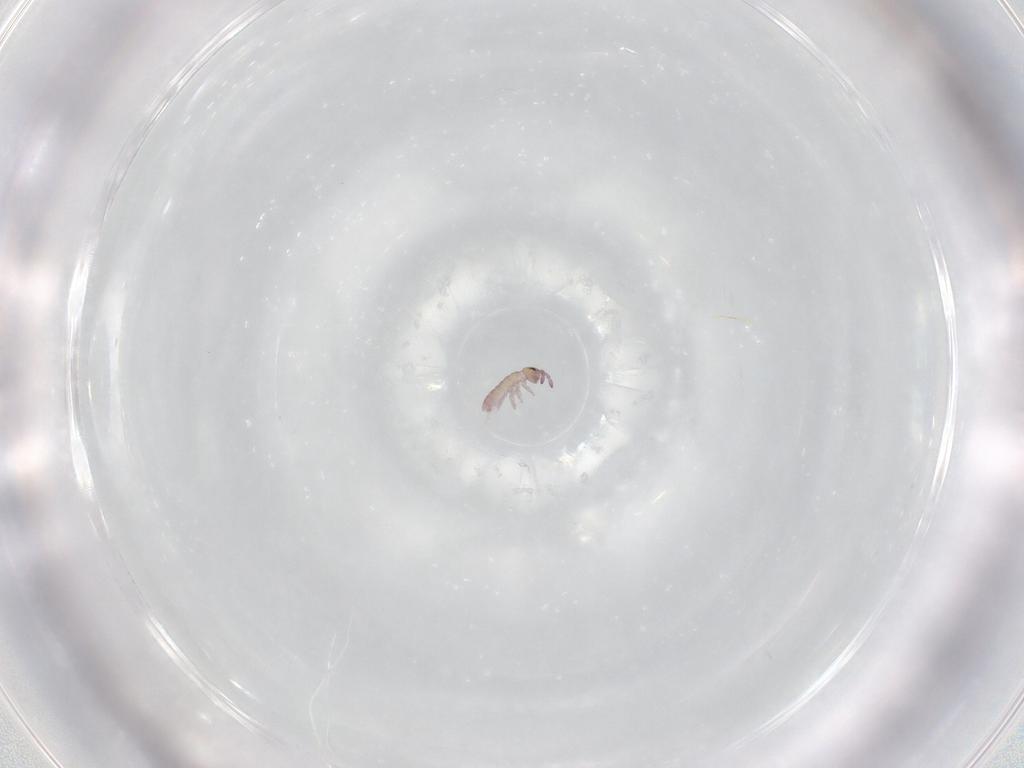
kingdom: Animalia
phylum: Arthropoda
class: Collembola
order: Entomobryomorpha
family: Isotomidae
